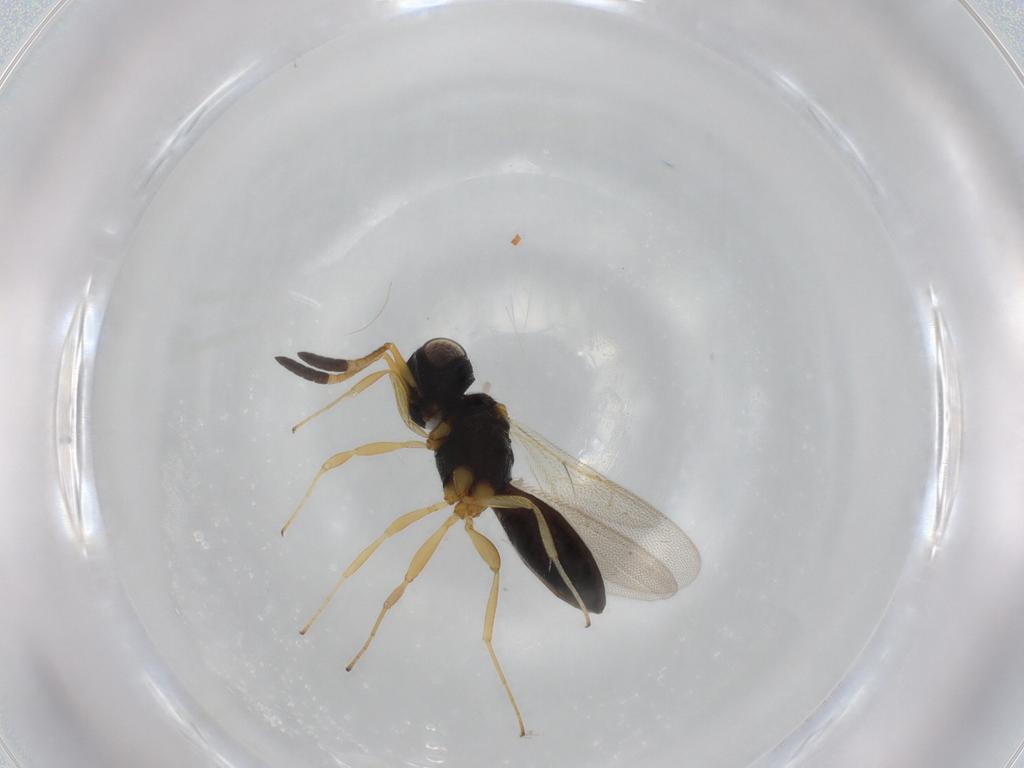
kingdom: Animalia
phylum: Arthropoda
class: Insecta
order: Hymenoptera
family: Scelionidae
